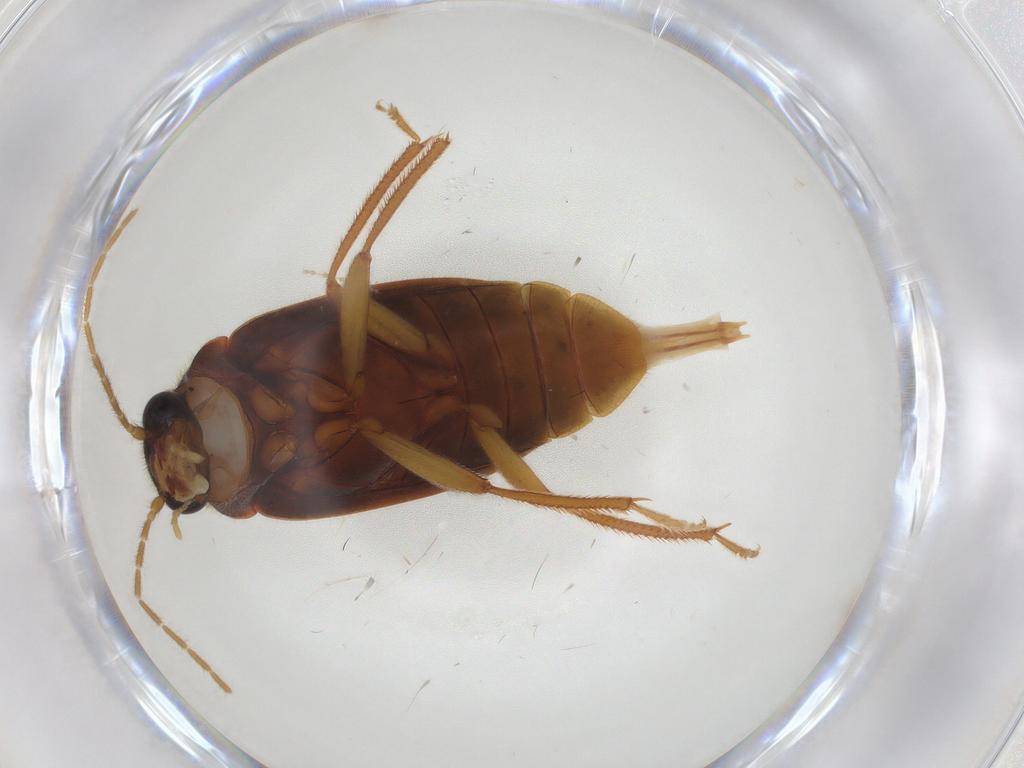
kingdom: Animalia
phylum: Arthropoda
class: Insecta
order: Coleoptera
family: Ptilodactylidae
